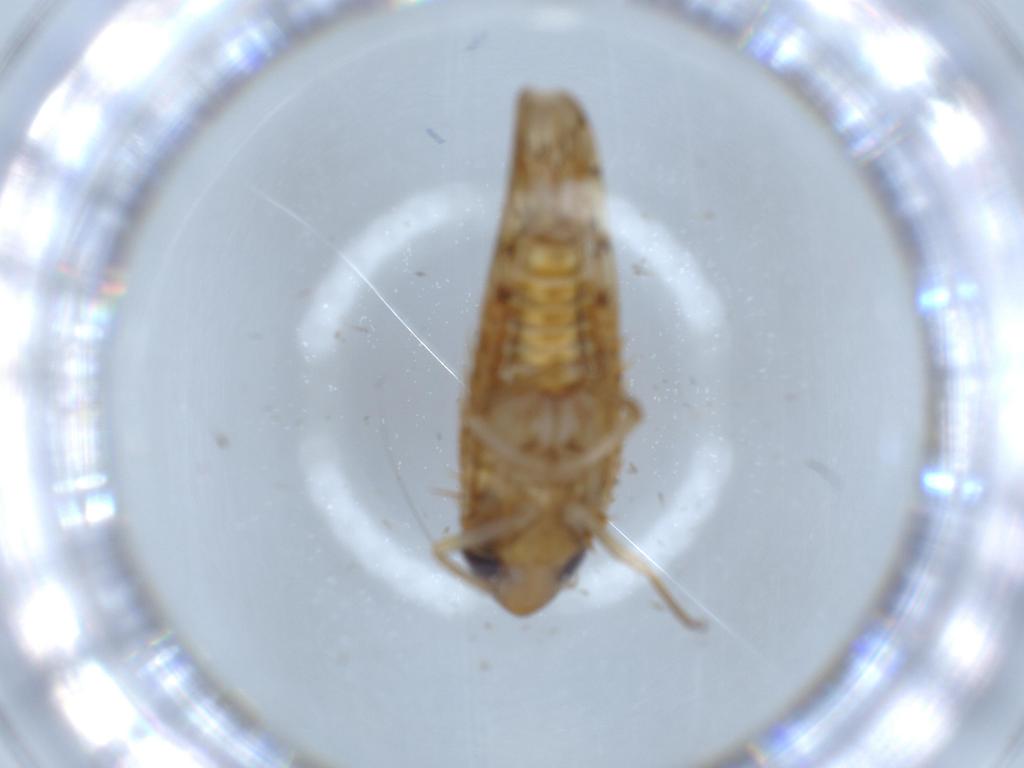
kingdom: Animalia
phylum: Arthropoda
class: Insecta
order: Hemiptera
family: Cicadellidae
